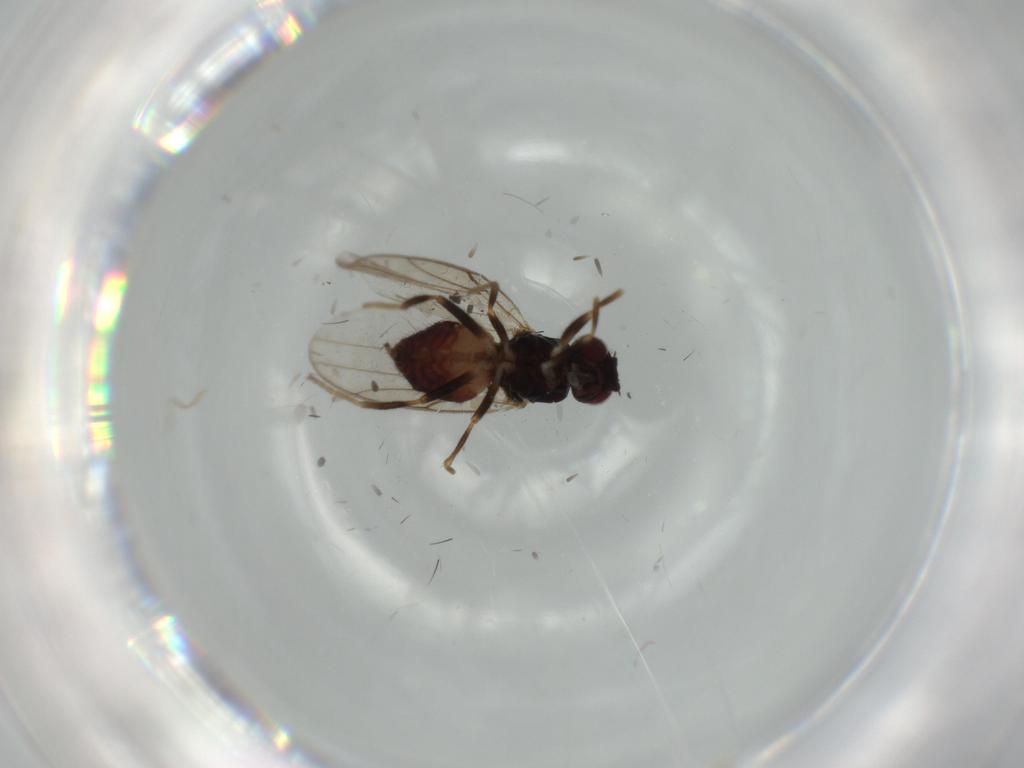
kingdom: Animalia
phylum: Arthropoda
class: Insecta
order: Diptera
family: Chloropidae
